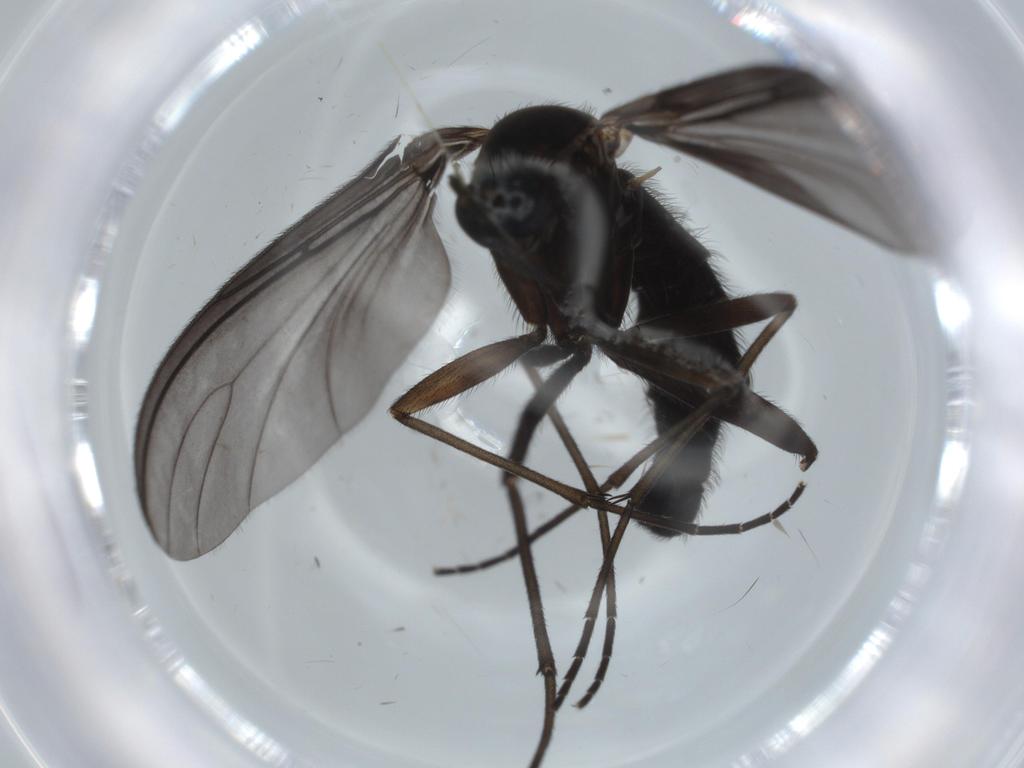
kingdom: Animalia
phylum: Arthropoda
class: Insecta
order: Diptera
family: Sciaridae
